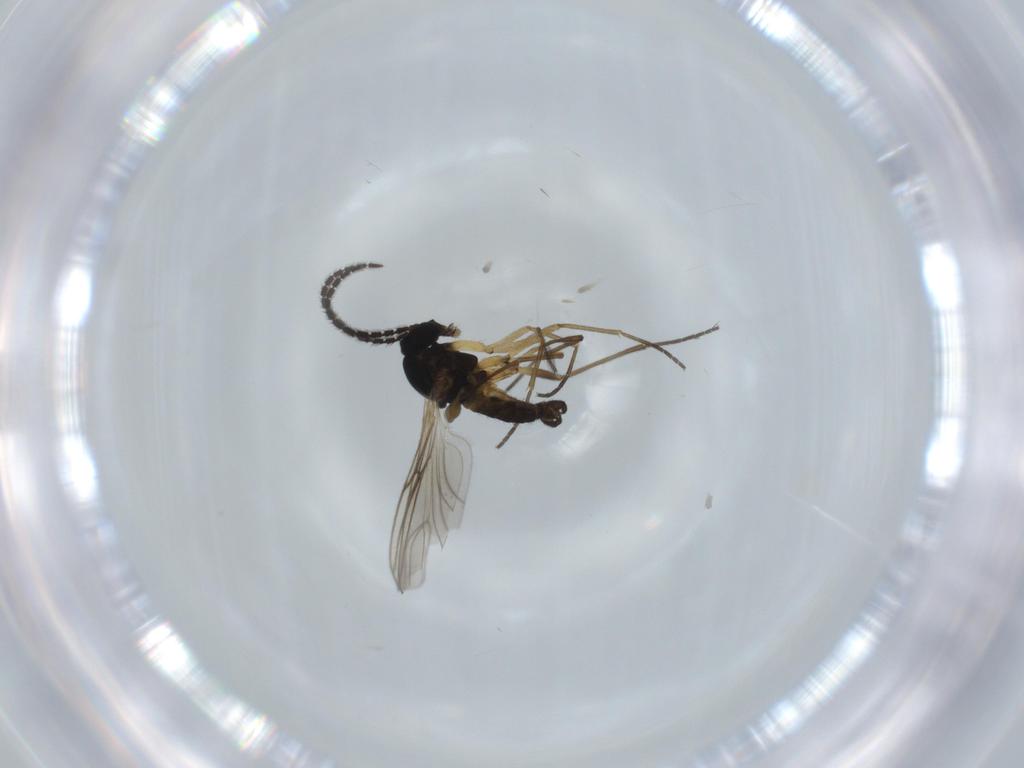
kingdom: Animalia
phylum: Arthropoda
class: Insecta
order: Diptera
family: Sciaridae
